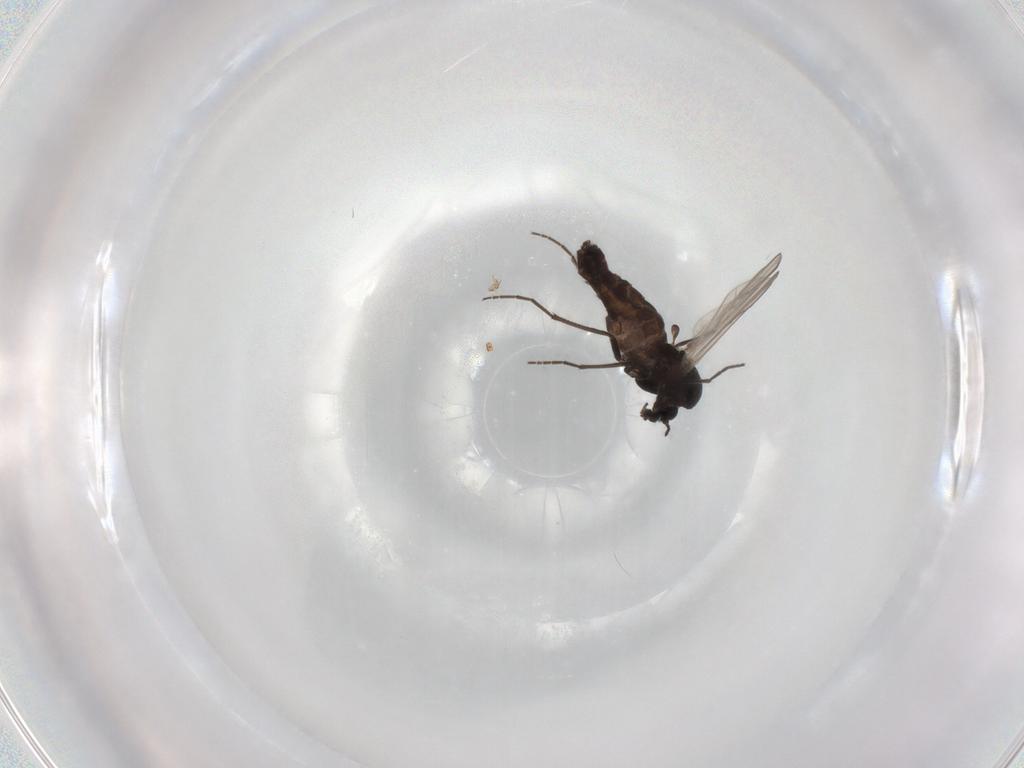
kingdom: Animalia
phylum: Arthropoda
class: Insecta
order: Diptera
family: Chironomidae
